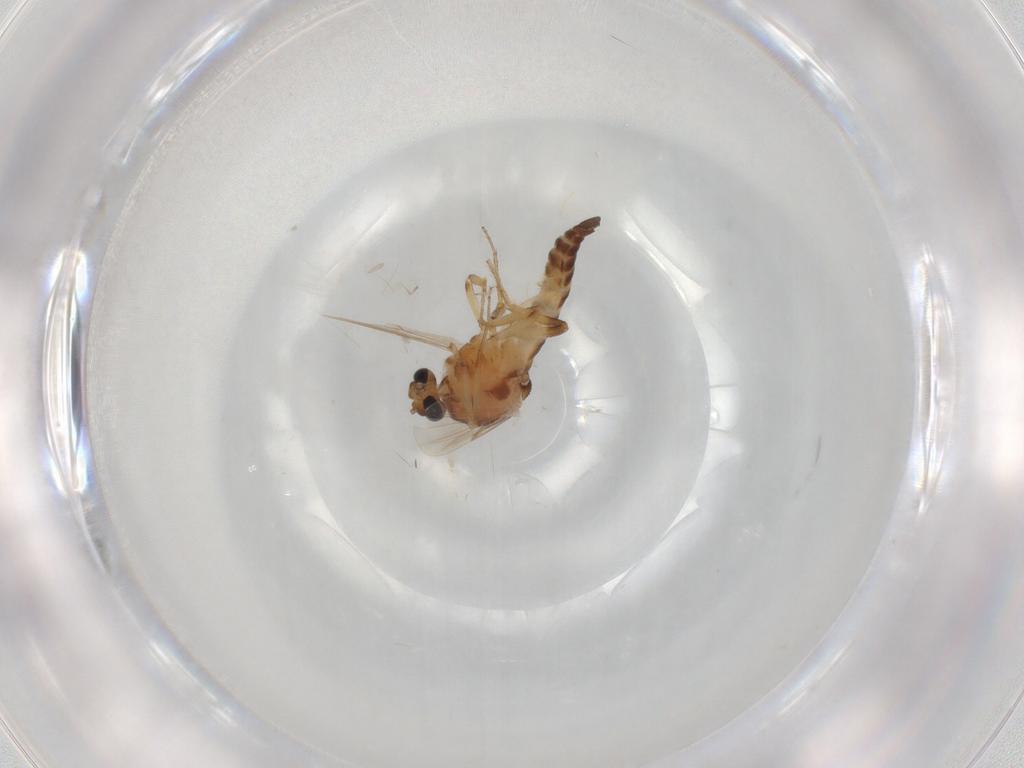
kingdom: Animalia
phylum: Arthropoda
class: Insecta
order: Diptera
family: Ceratopogonidae
